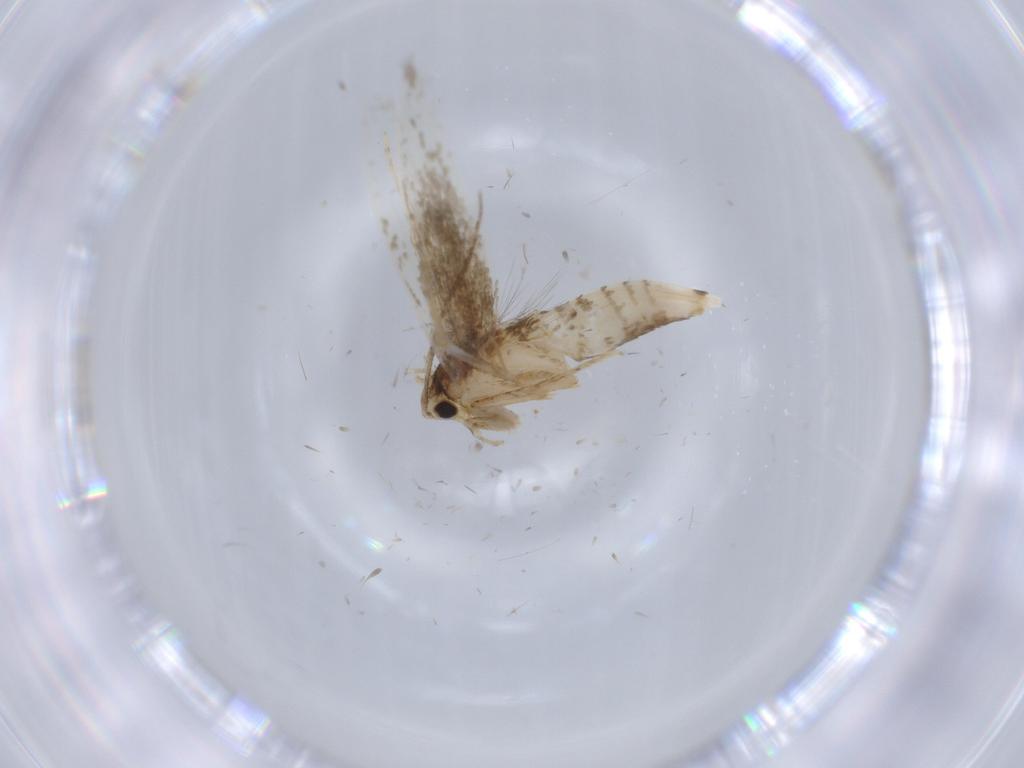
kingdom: Animalia
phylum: Arthropoda
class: Insecta
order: Lepidoptera
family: Tineidae
